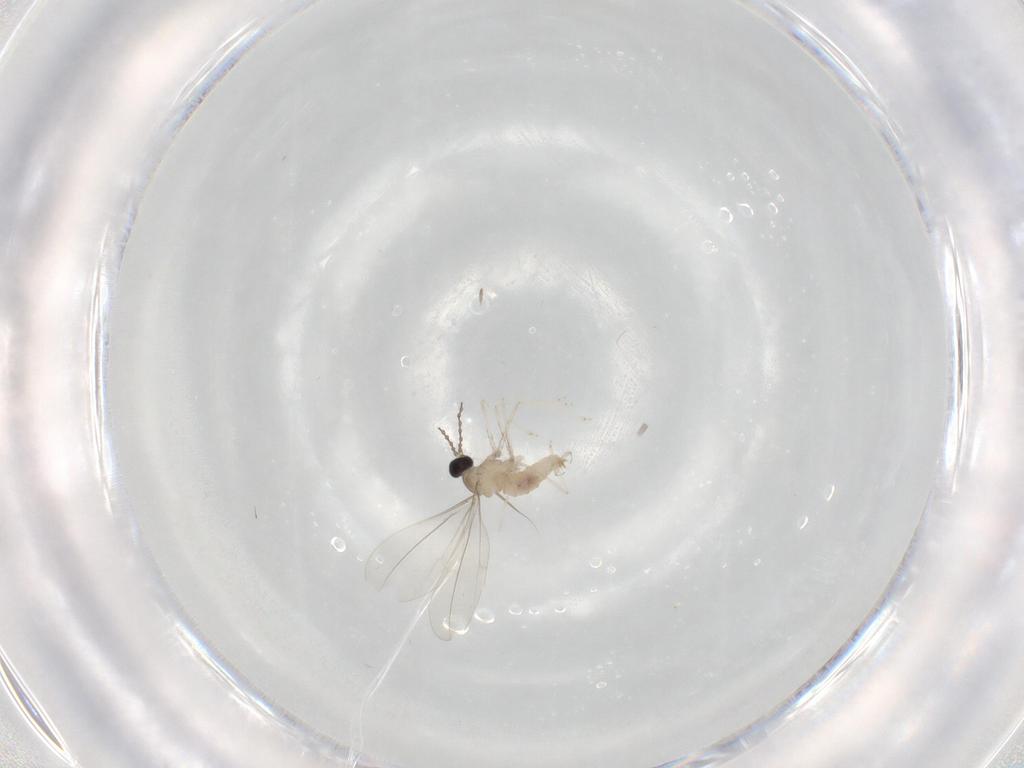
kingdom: Animalia
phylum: Arthropoda
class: Insecta
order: Diptera
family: Cecidomyiidae
